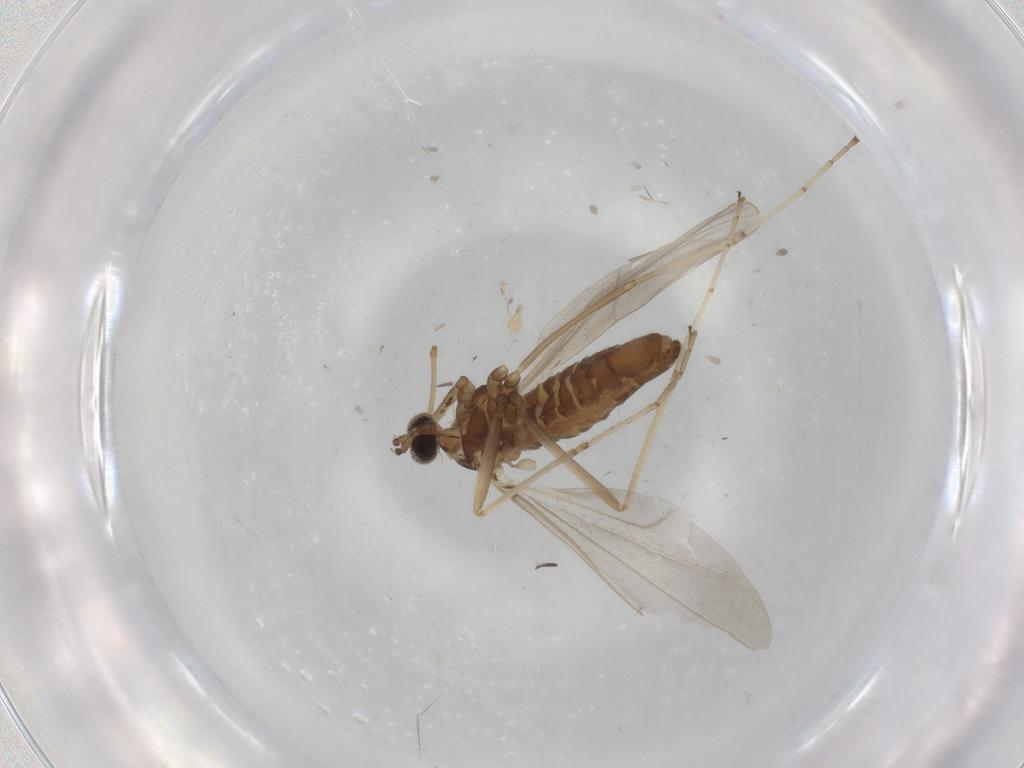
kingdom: Animalia
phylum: Arthropoda
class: Insecta
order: Diptera
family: Cecidomyiidae
